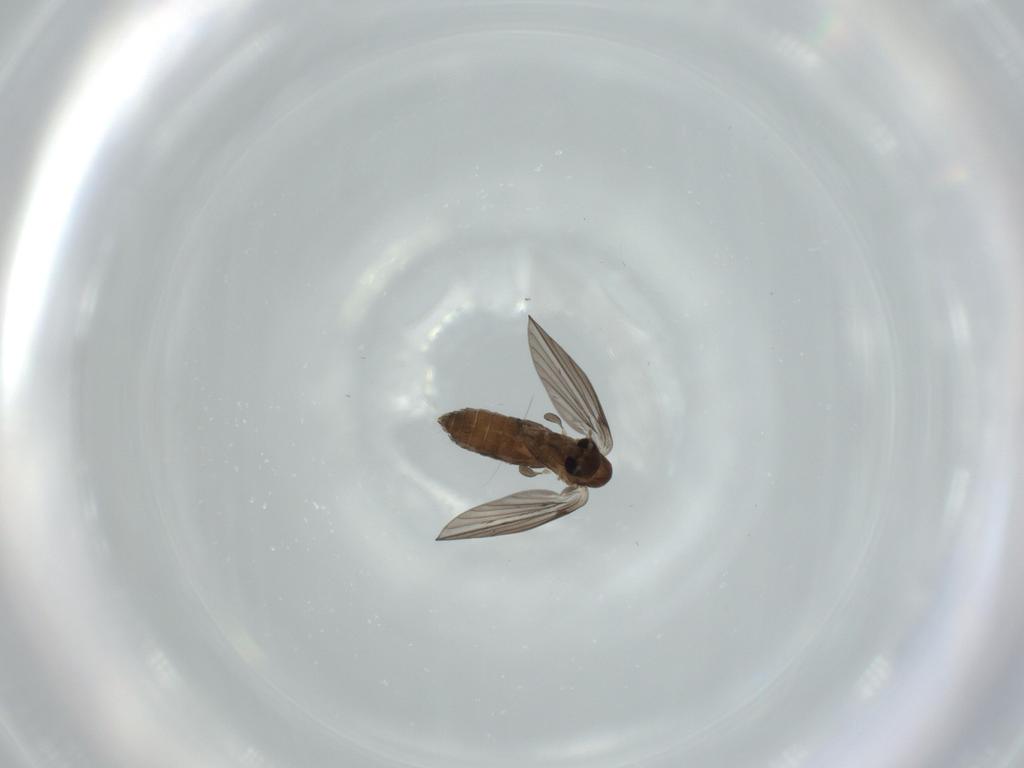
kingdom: Animalia
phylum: Arthropoda
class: Insecta
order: Diptera
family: Psychodidae
